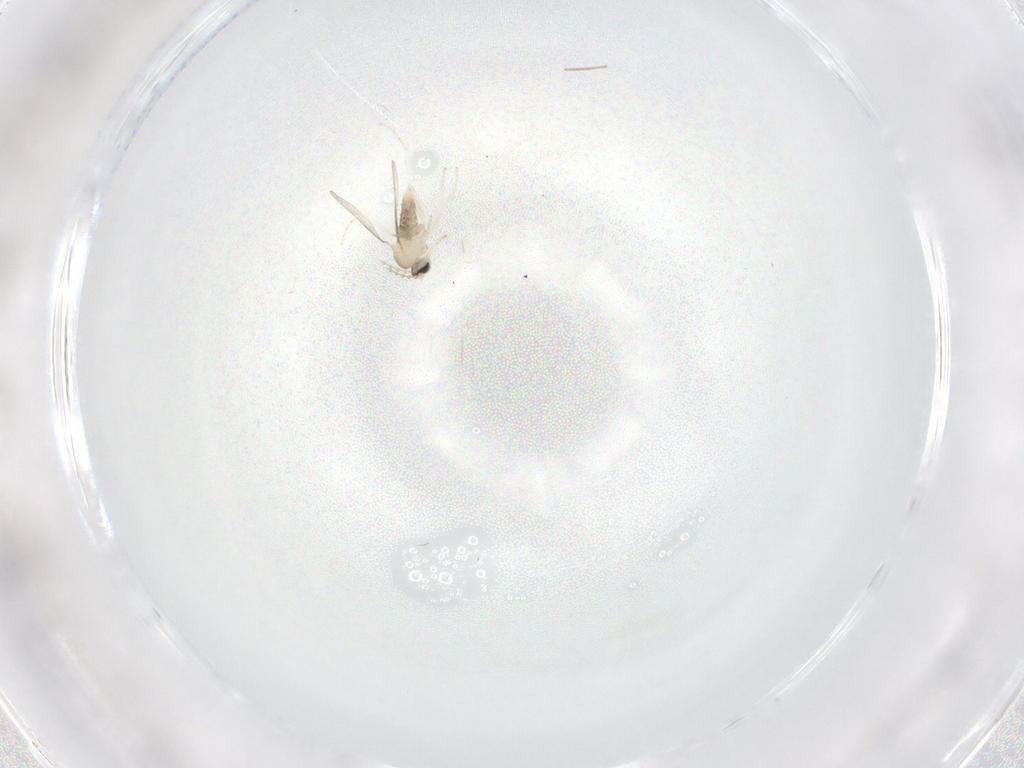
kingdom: Animalia
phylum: Arthropoda
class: Insecta
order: Diptera
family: Cecidomyiidae
